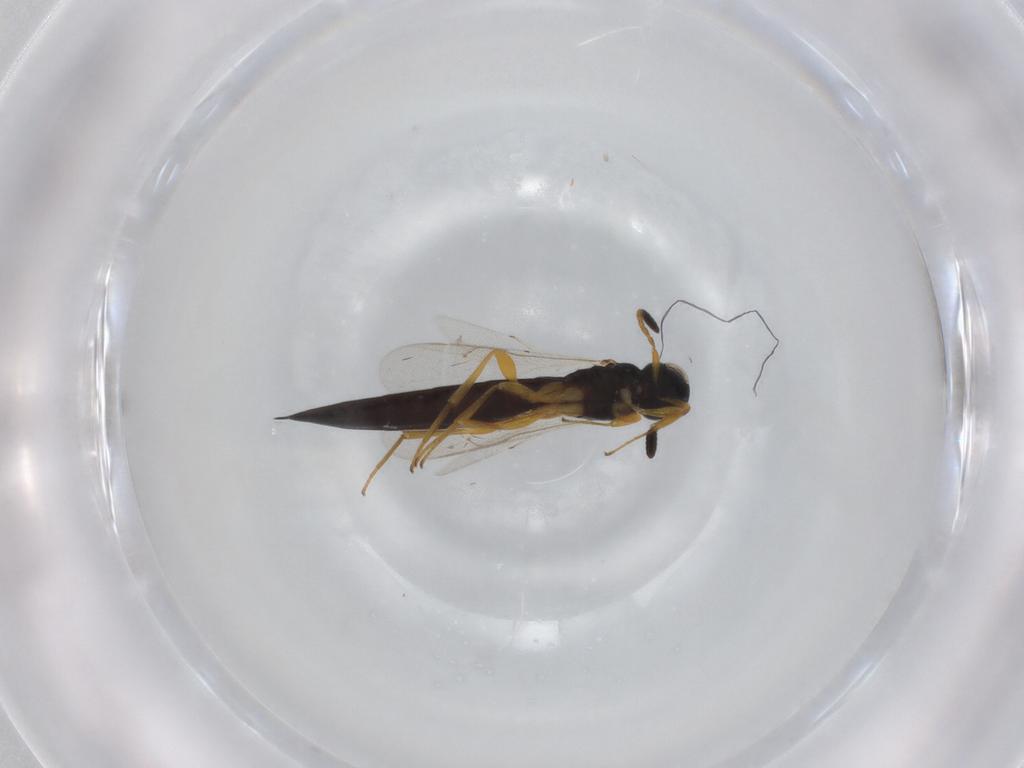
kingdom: Animalia
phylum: Arthropoda
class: Insecta
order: Hymenoptera
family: Scelionidae
